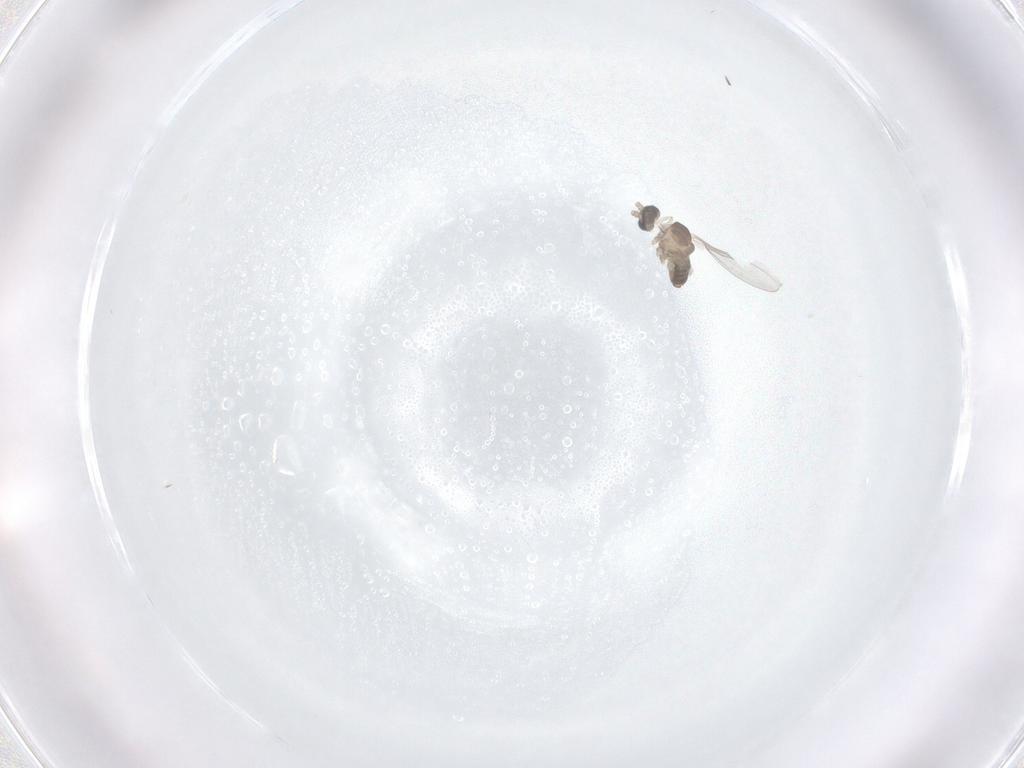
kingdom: Animalia
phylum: Arthropoda
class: Insecta
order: Diptera
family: Psychodidae
